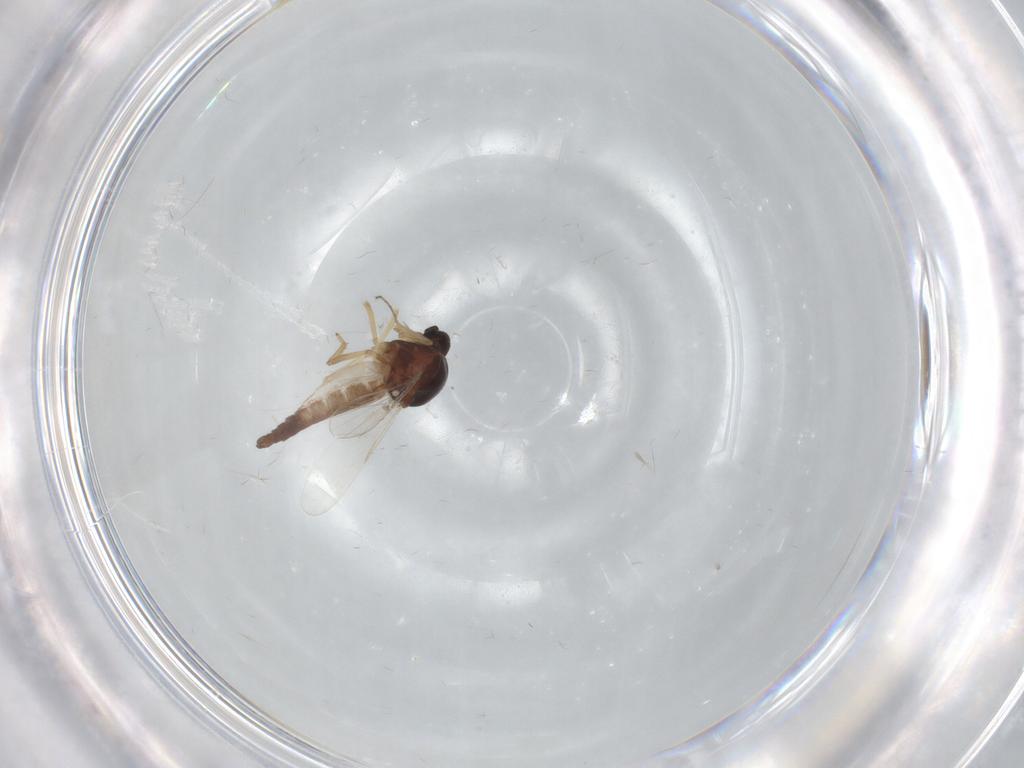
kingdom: Animalia
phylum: Arthropoda
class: Insecta
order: Diptera
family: Ceratopogonidae
